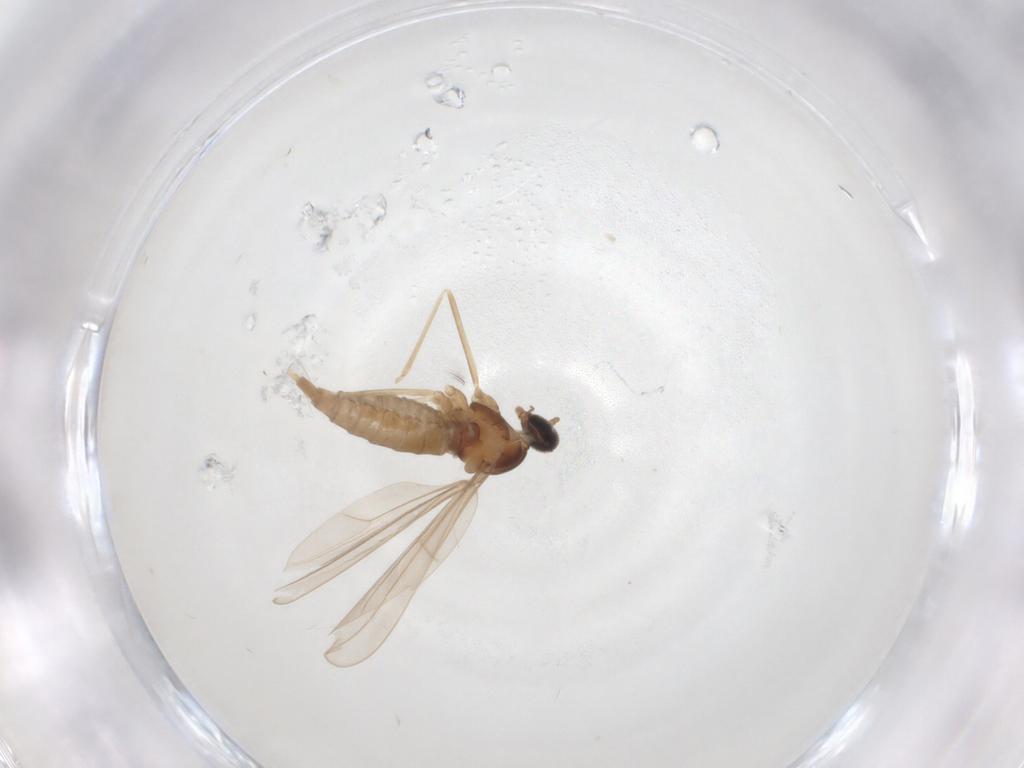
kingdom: Animalia
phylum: Arthropoda
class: Insecta
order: Diptera
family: Cecidomyiidae
